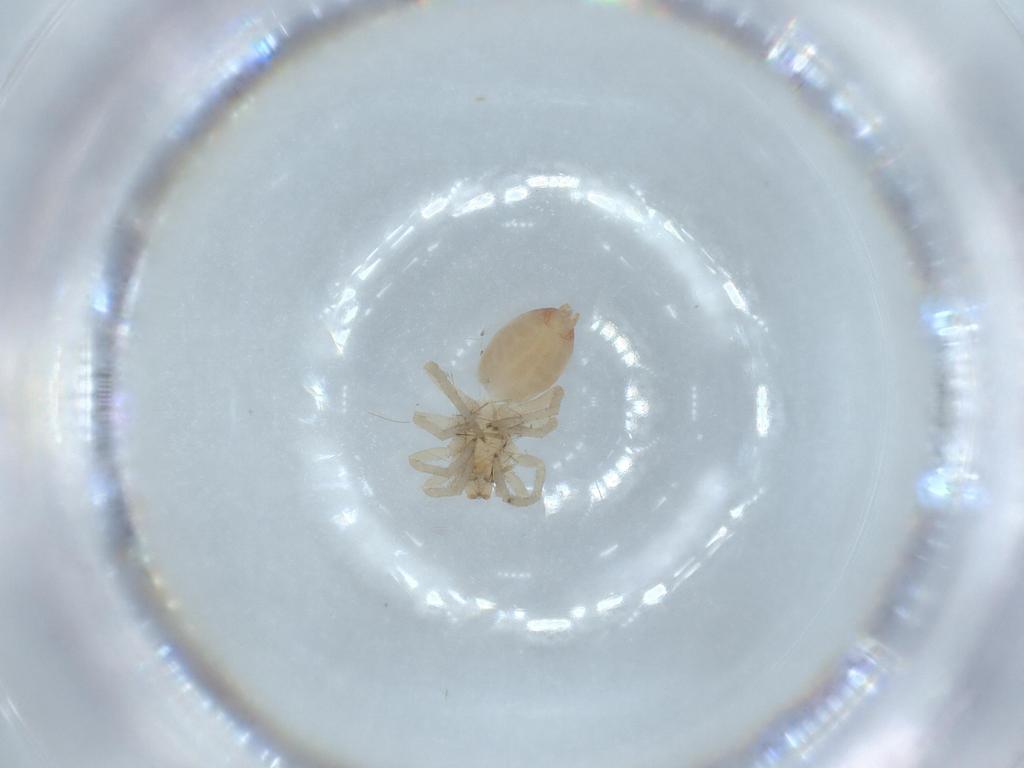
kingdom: Animalia
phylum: Arthropoda
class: Arachnida
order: Araneae
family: Clubionidae
